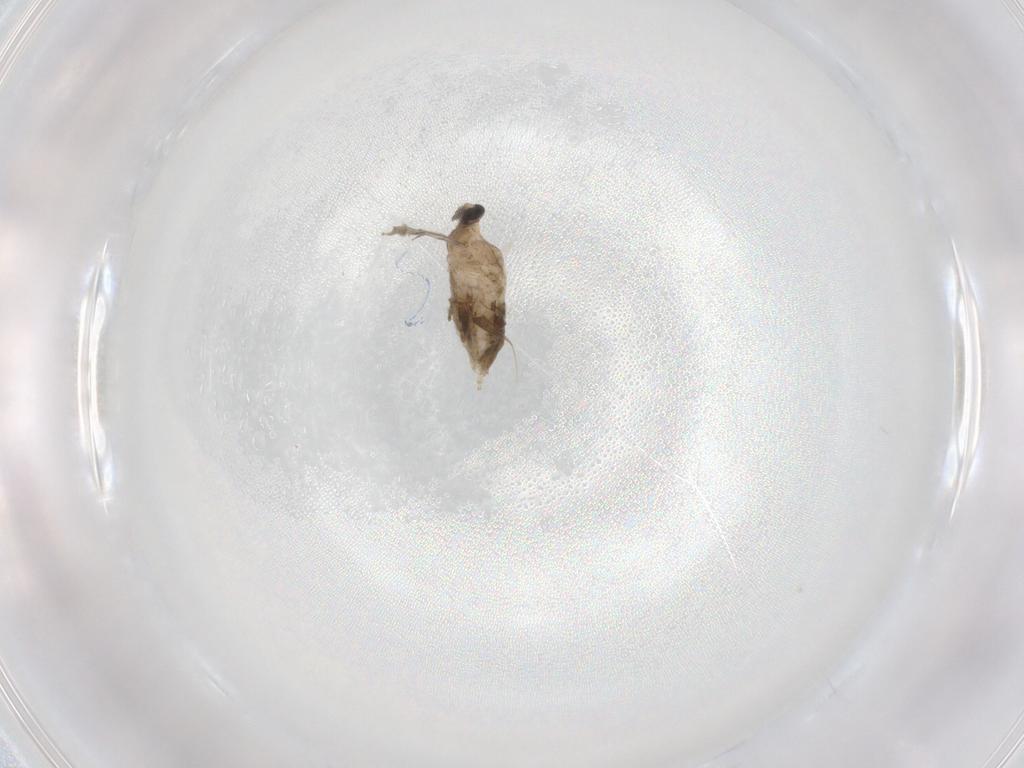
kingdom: Animalia
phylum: Arthropoda
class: Insecta
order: Diptera
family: Cecidomyiidae
